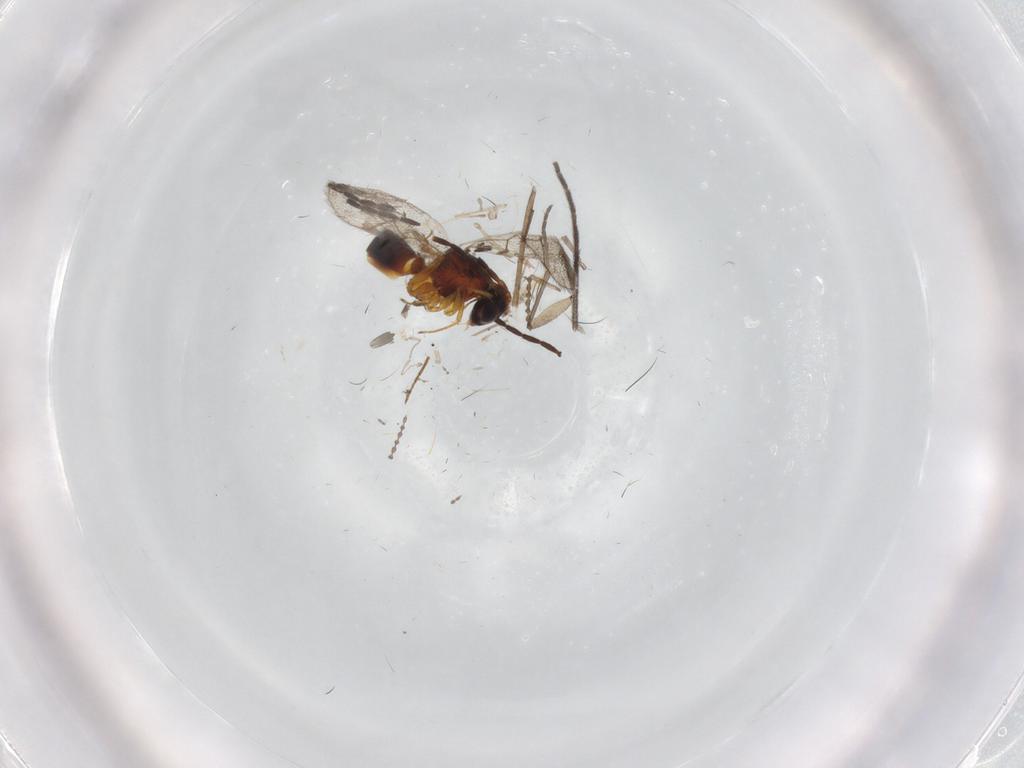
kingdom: Animalia
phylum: Arthropoda
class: Insecta
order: Hymenoptera
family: Figitidae
